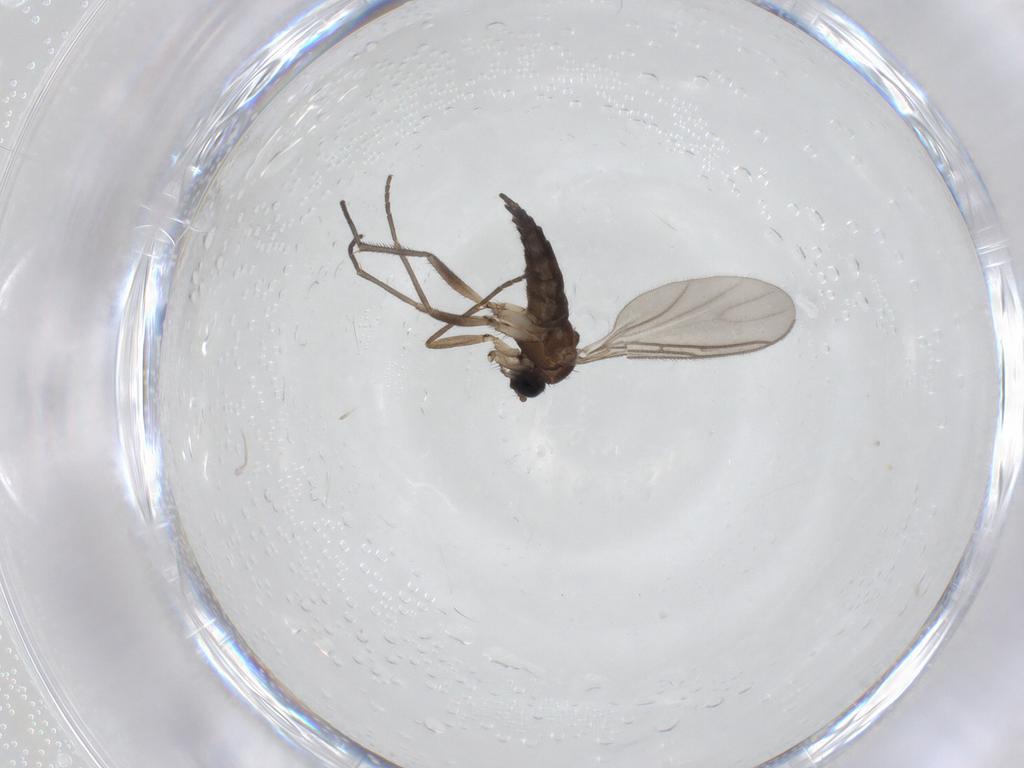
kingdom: Animalia
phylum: Arthropoda
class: Insecta
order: Diptera
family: Sciaridae
